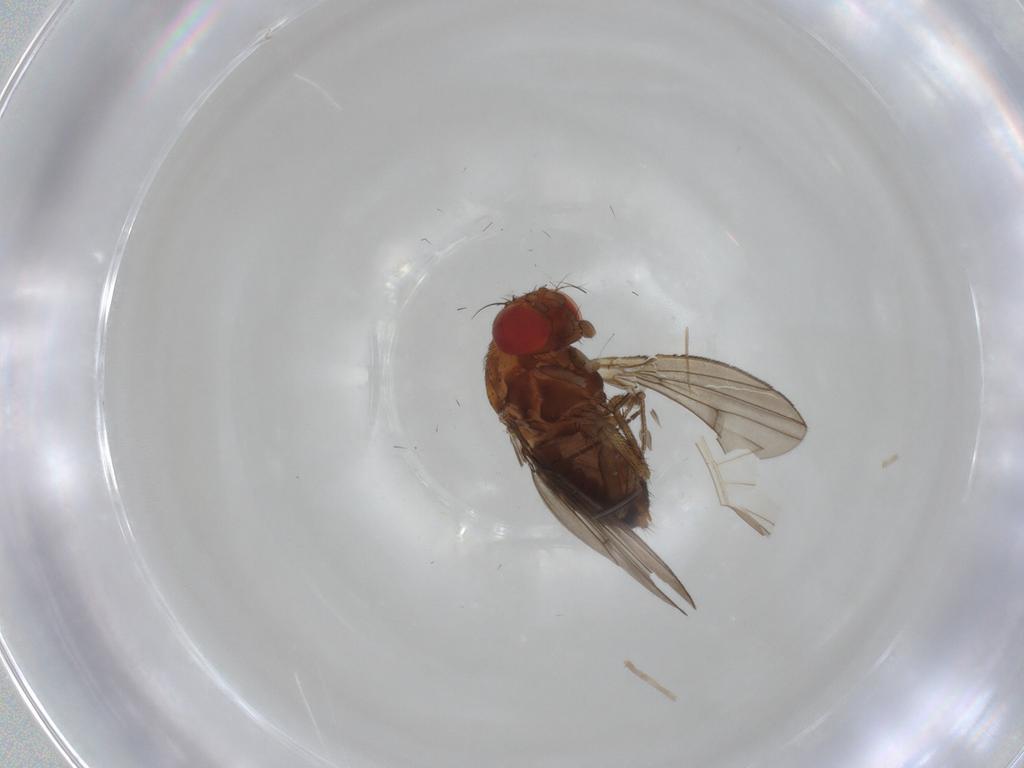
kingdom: Animalia
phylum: Arthropoda
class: Insecta
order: Diptera
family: Drosophilidae
